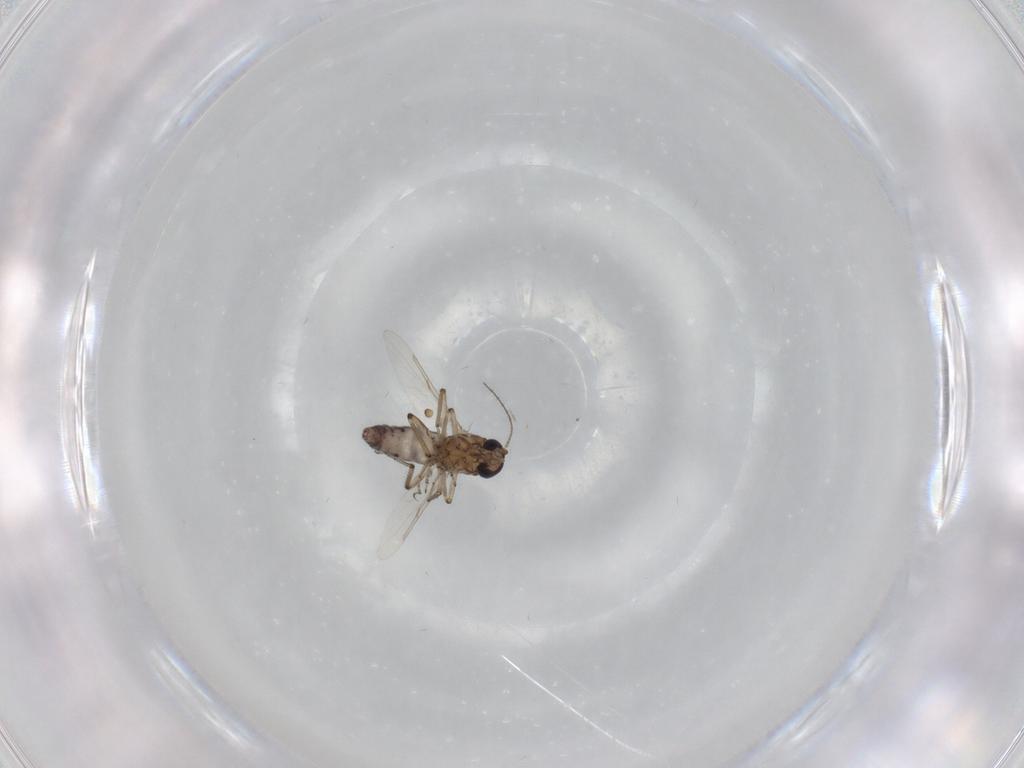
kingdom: Animalia
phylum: Arthropoda
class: Insecta
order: Diptera
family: Ceratopogonidae
